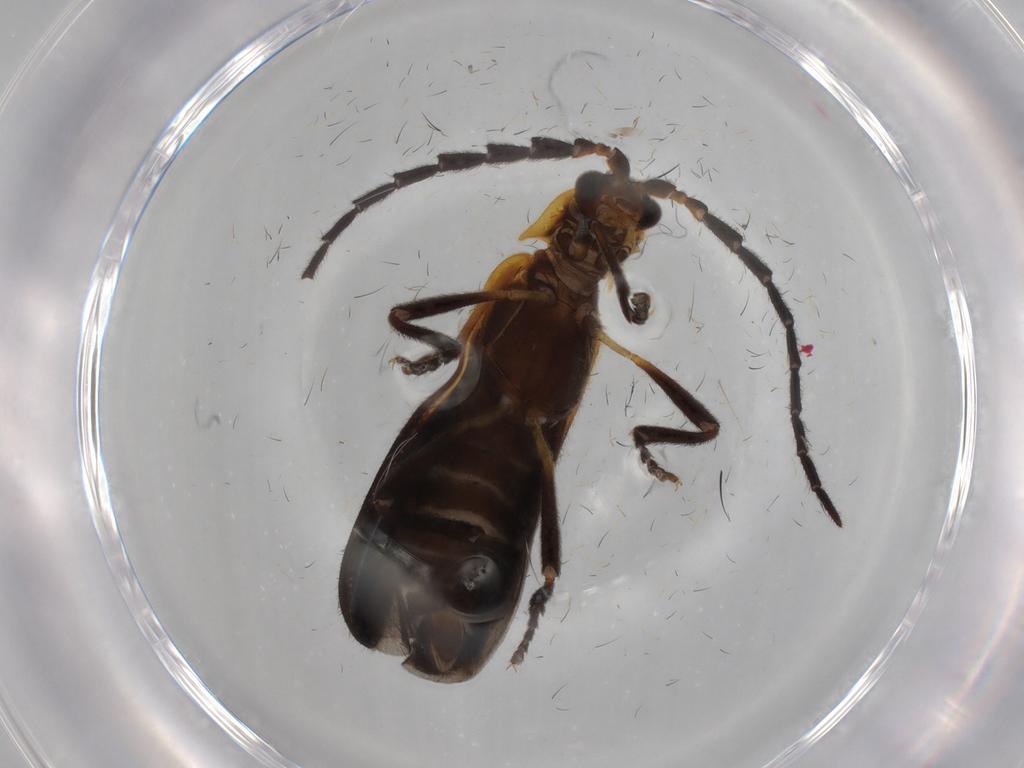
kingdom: Animalia
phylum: Arthropoda
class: Insecta
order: Coleoptera
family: Lycidae
